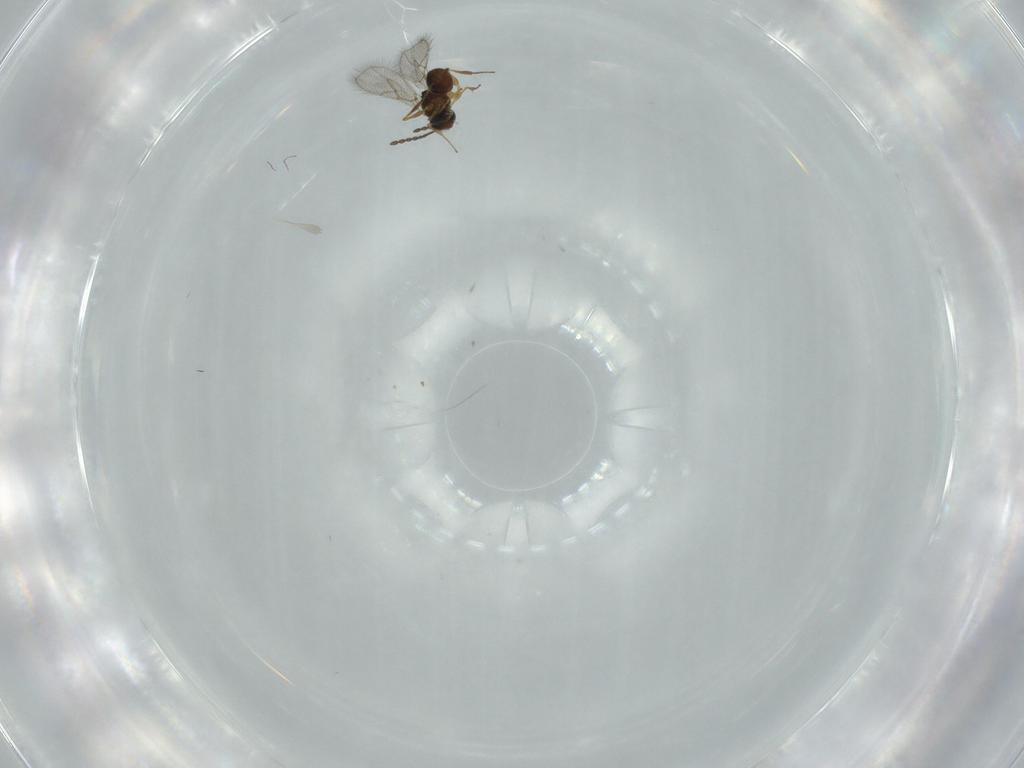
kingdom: Animalia
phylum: Arthropoda
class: Insecta
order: Hymenoptera
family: Figitidae
